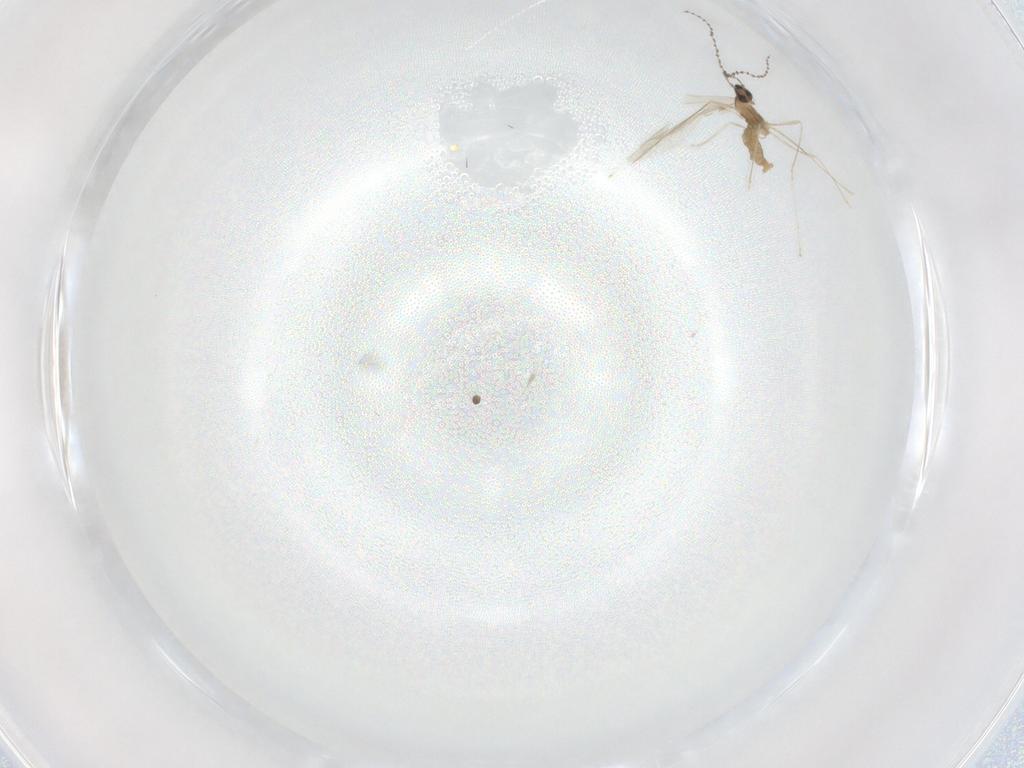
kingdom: Animalia
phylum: Arthropoda
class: Insecta
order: Diptera
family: Cecidomyiidae
